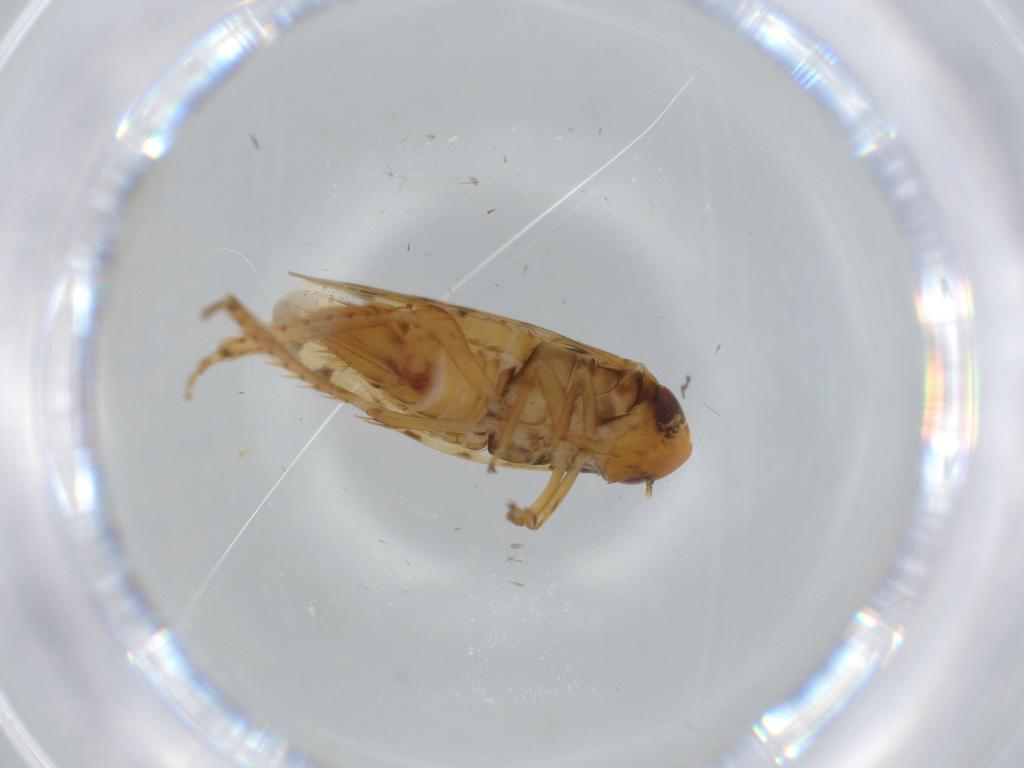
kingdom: Animalia
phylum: Arthropoda
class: Insecta
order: Hemiptera
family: Cicadellidae
